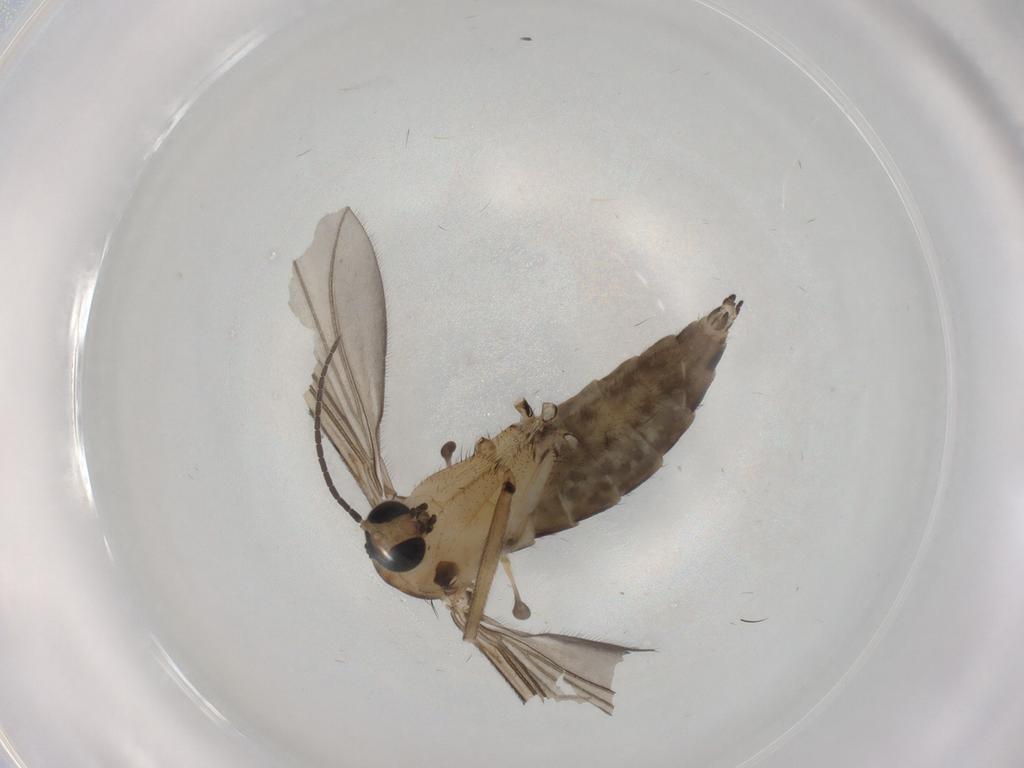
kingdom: Animalia
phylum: Arthropoda
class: Insecta
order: Diptera
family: Sciaridae
